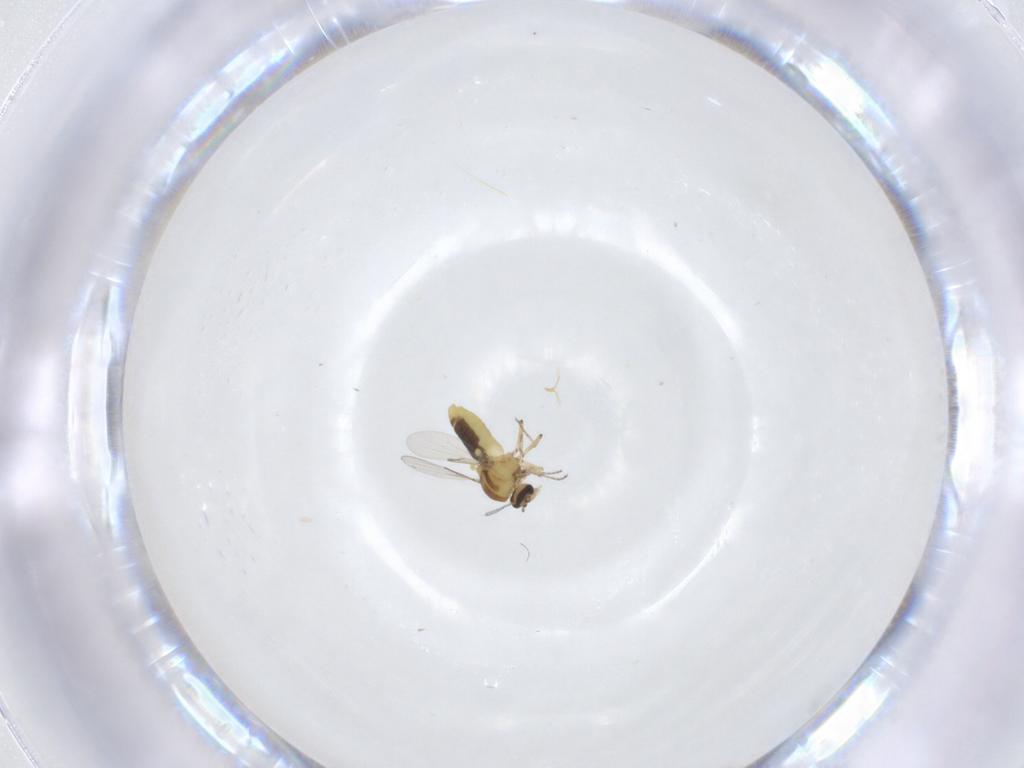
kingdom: Animalia
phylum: Arthropoda
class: Insecta
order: Diptera
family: Ceratopogonidae
